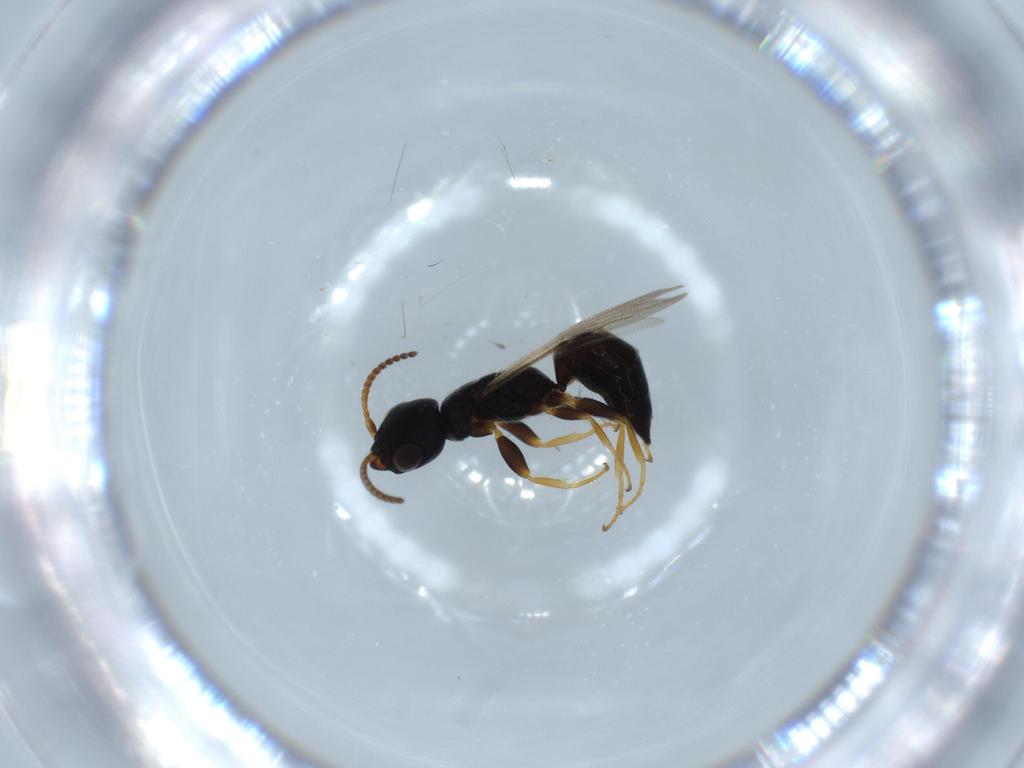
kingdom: Animalia
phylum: Arthropoda
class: Insecta
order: Hymenoptera
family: Bethylidae
